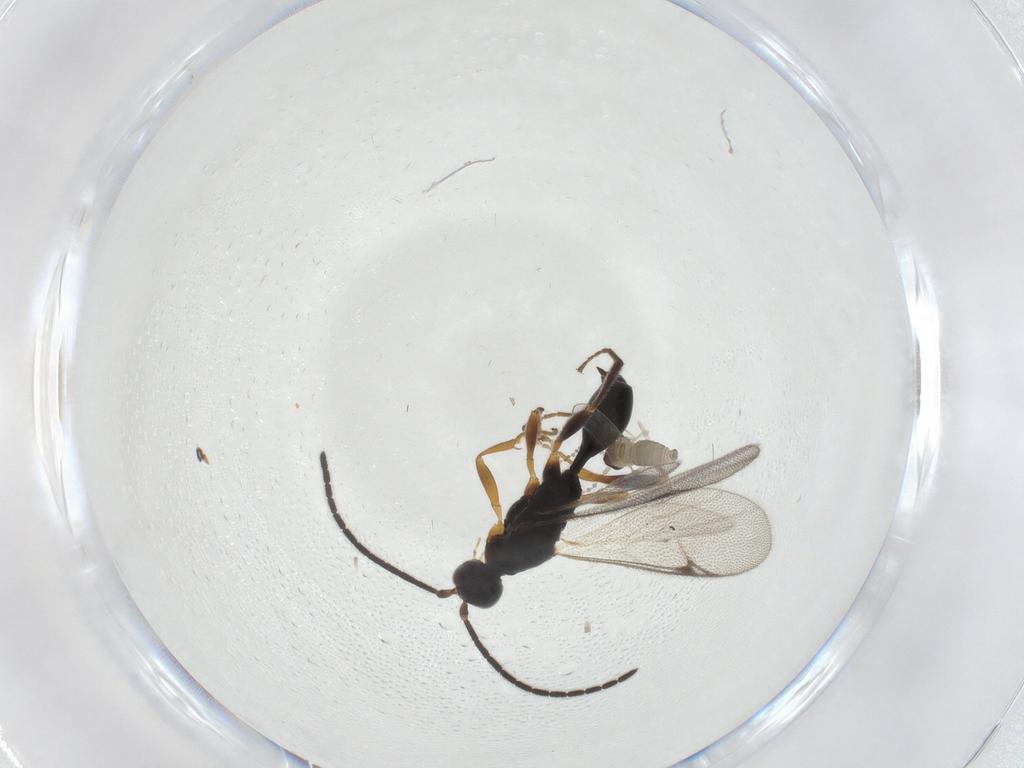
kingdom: Animalia
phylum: Arthropoda
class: Insecta
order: Diptera
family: Cecidomyiidae
